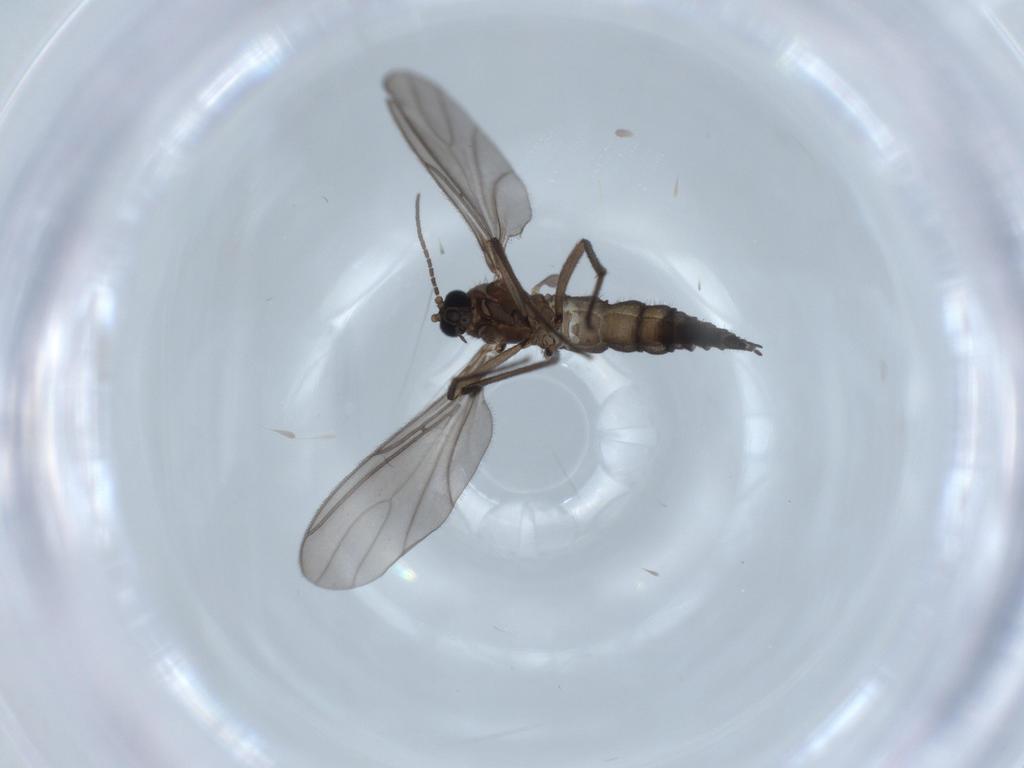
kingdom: Animalia
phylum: Arthropoda
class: Insecta
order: Diptera
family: Sciaridae
